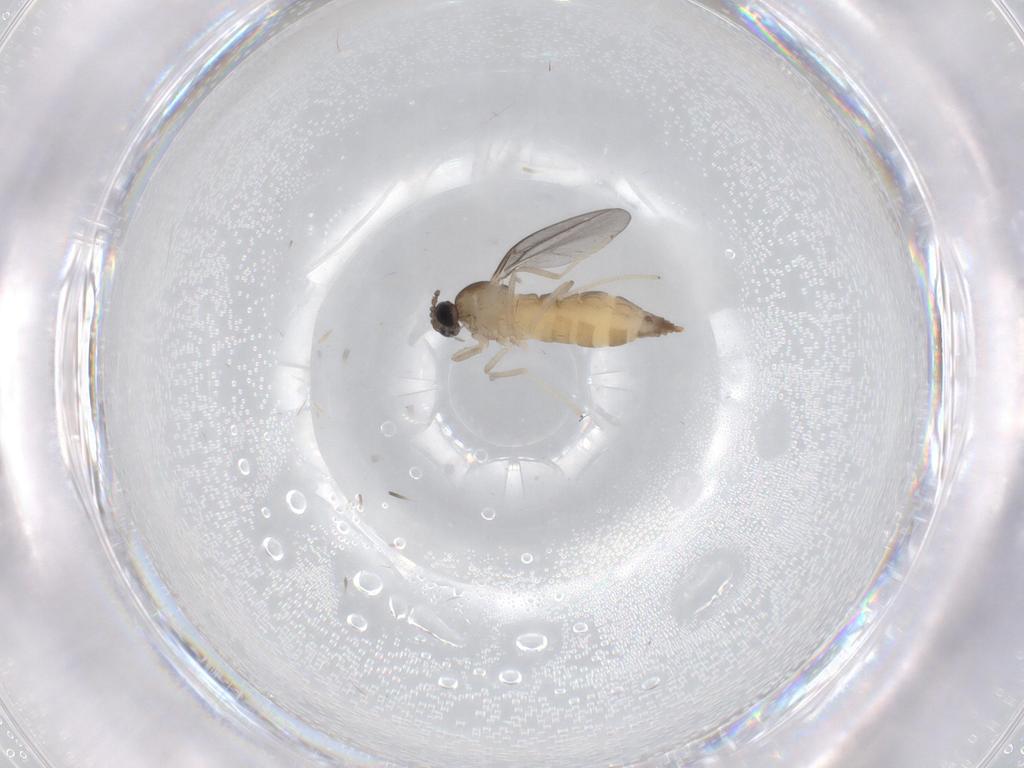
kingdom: Animalia
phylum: Arthropoda
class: Insecta
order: Diptera
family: Cecidomyiidae
